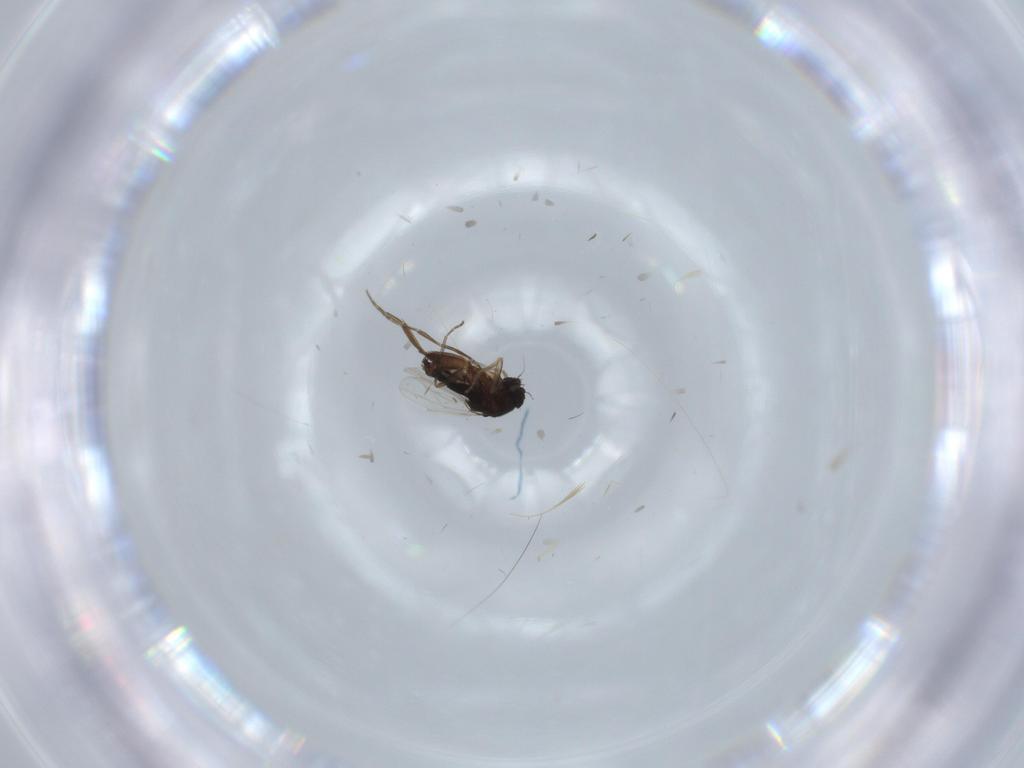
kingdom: Animalia
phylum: Arthropoda
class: Insecta
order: Diptera
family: Phoridae
